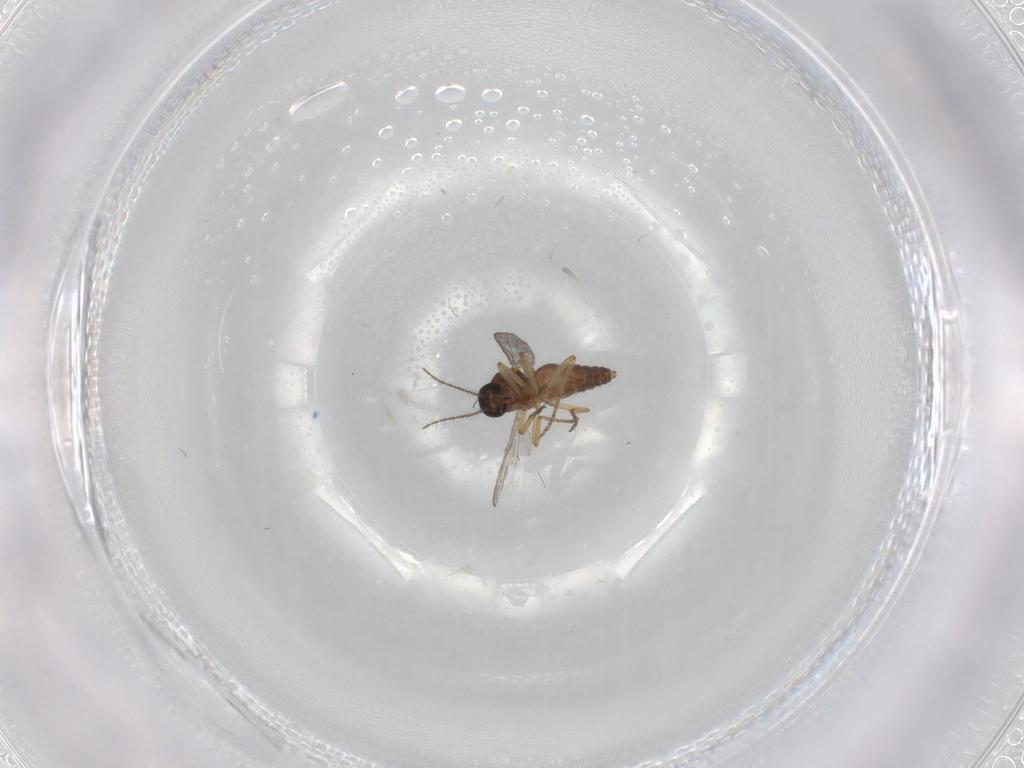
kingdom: Animalia
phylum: Arthropoda
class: Insecta
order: Diptera
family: Ceratopogonidae
